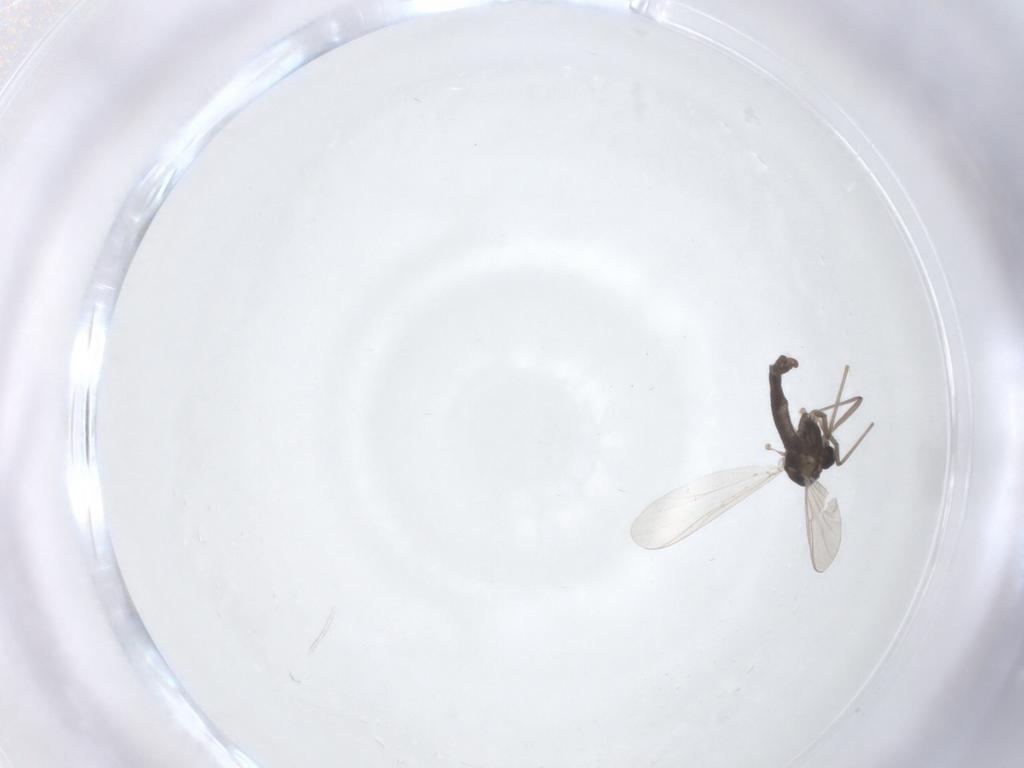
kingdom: Animalia
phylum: Arthropoda
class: Insecta
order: Diptera
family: Chironomidae
